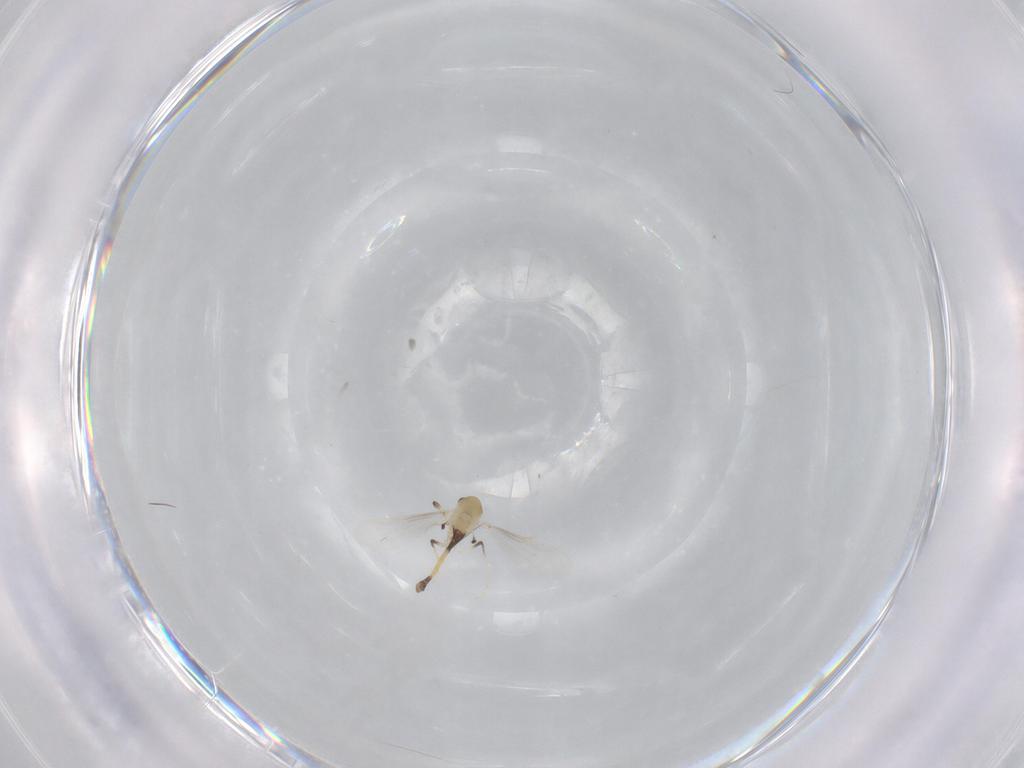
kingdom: Animalia
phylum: Arthropoda
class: Insecta
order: Diptera
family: Chironomidae
